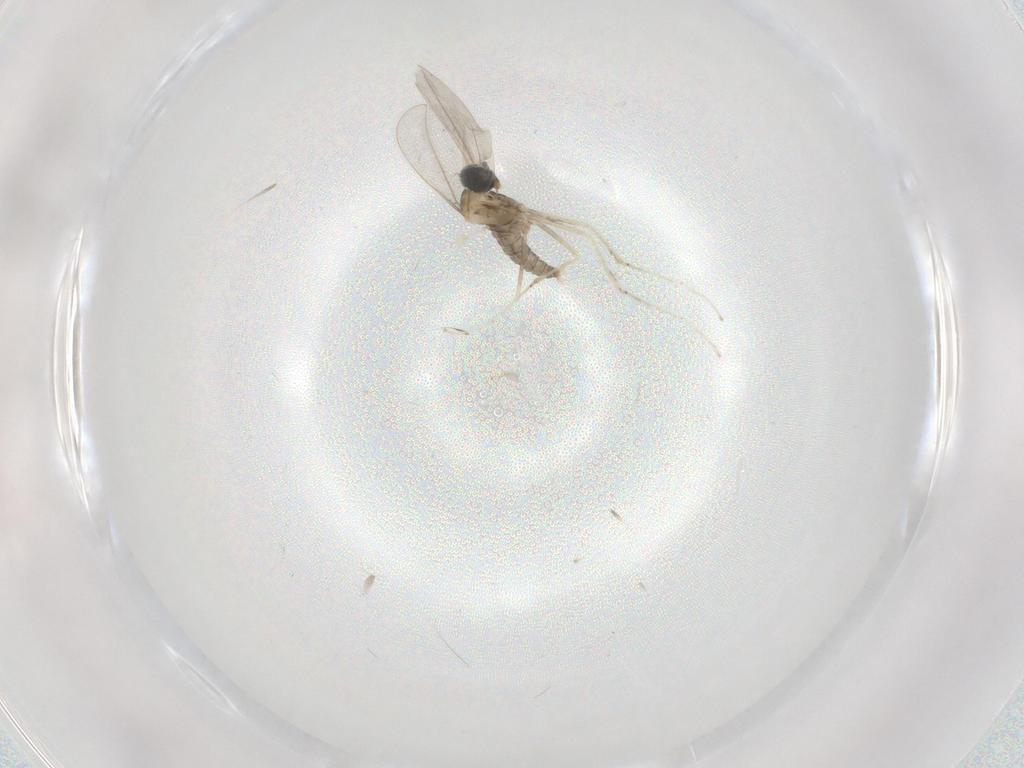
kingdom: Animalia
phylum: Arthropoda
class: Insecta
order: Diptera
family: Cecidomyiidae
